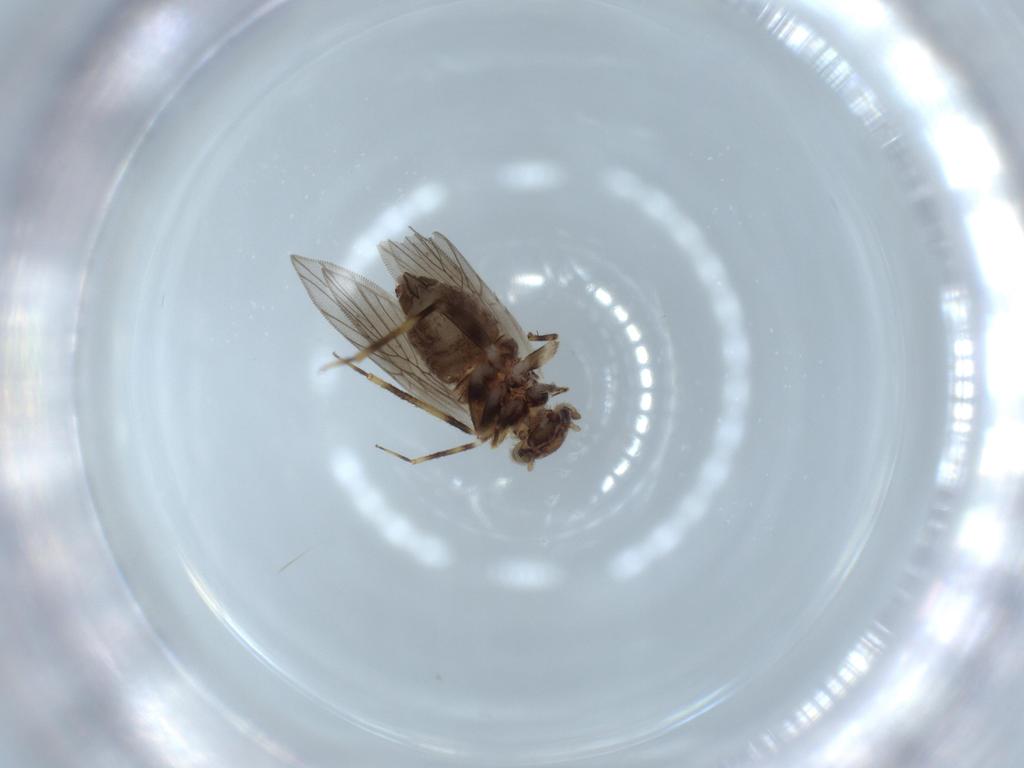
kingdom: Animalia
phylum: Arthropoda
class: Insecta
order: Psocodea
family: Lepidopsocidae
